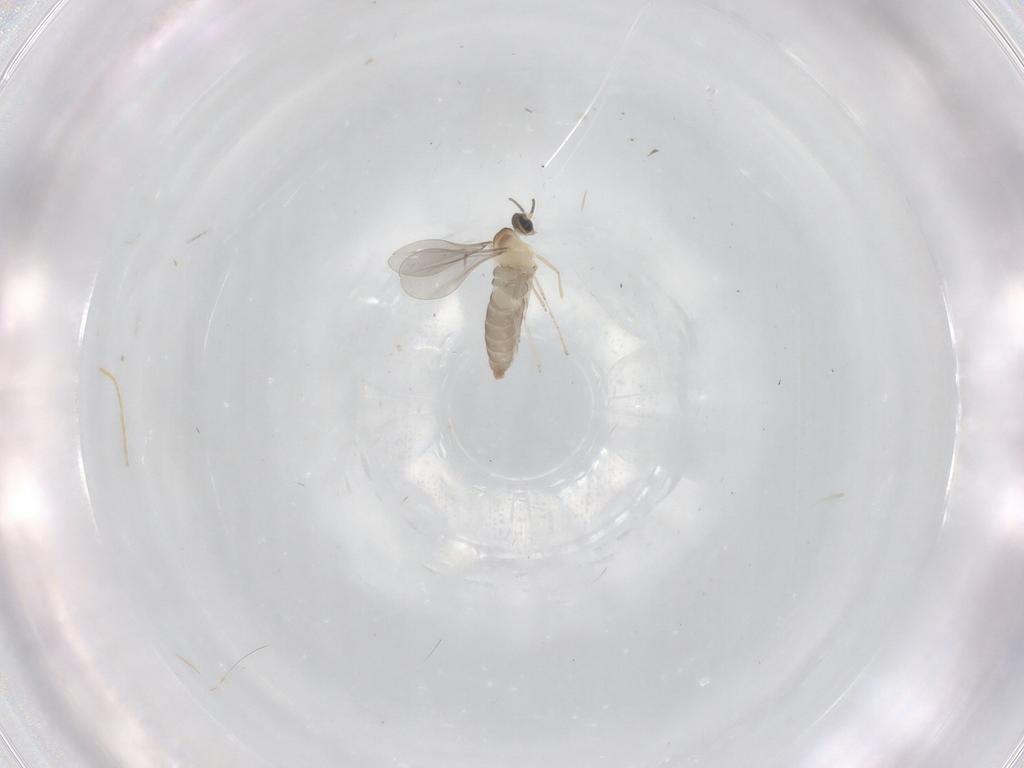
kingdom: Animalia
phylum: Arthropoda
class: Insecta
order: Diptera
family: Cecidomyiidae
